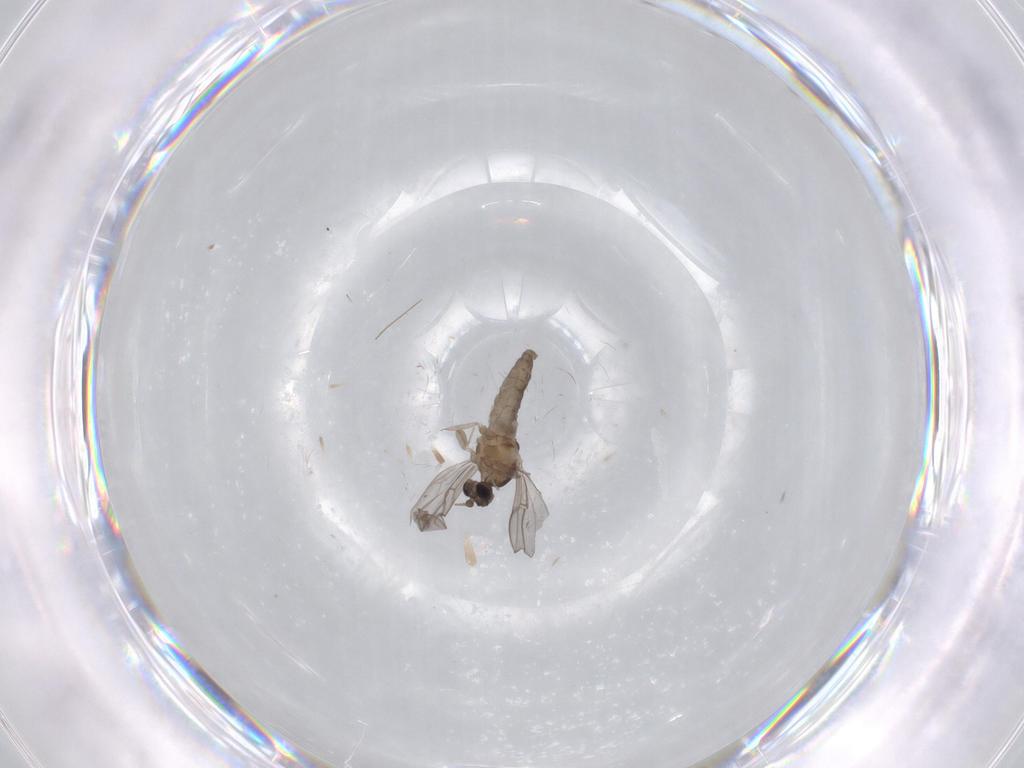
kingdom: Animalia
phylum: Arthropoda
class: Insecta
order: Diptera
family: Cecidomyiidae
